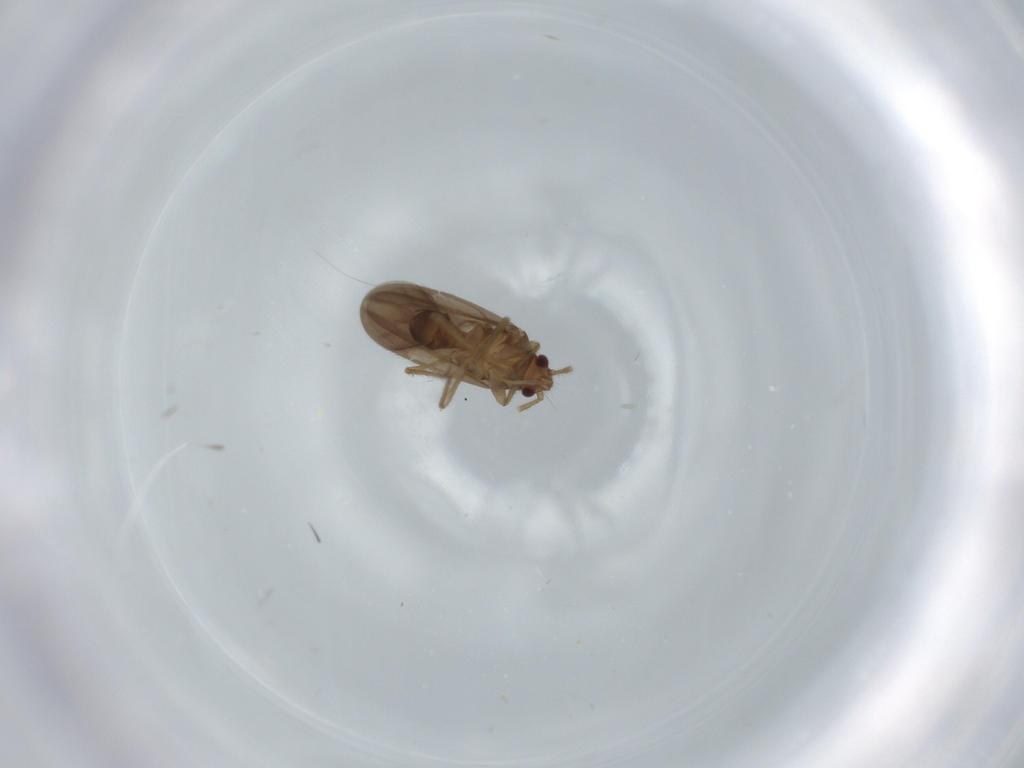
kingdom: Animalia
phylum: Arthropoda
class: Insecta
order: Hemiptera
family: Ceratocombidae
